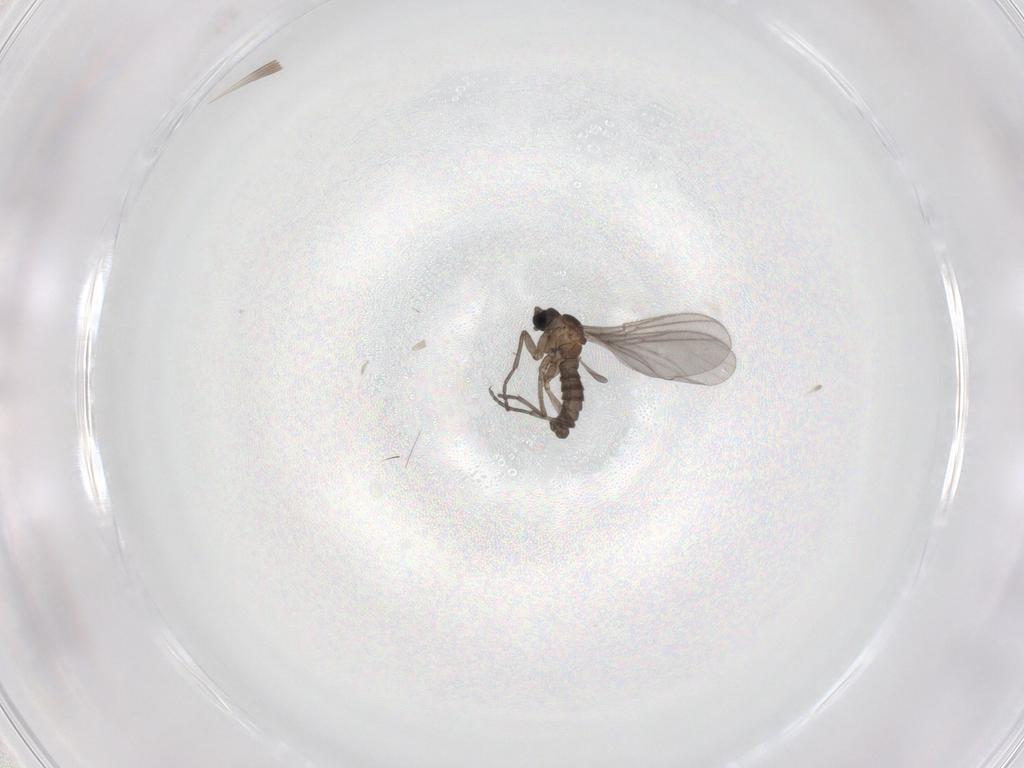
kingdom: Animalia
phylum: Arthropoda
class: Insecta
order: Diptera
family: Sciaridae
